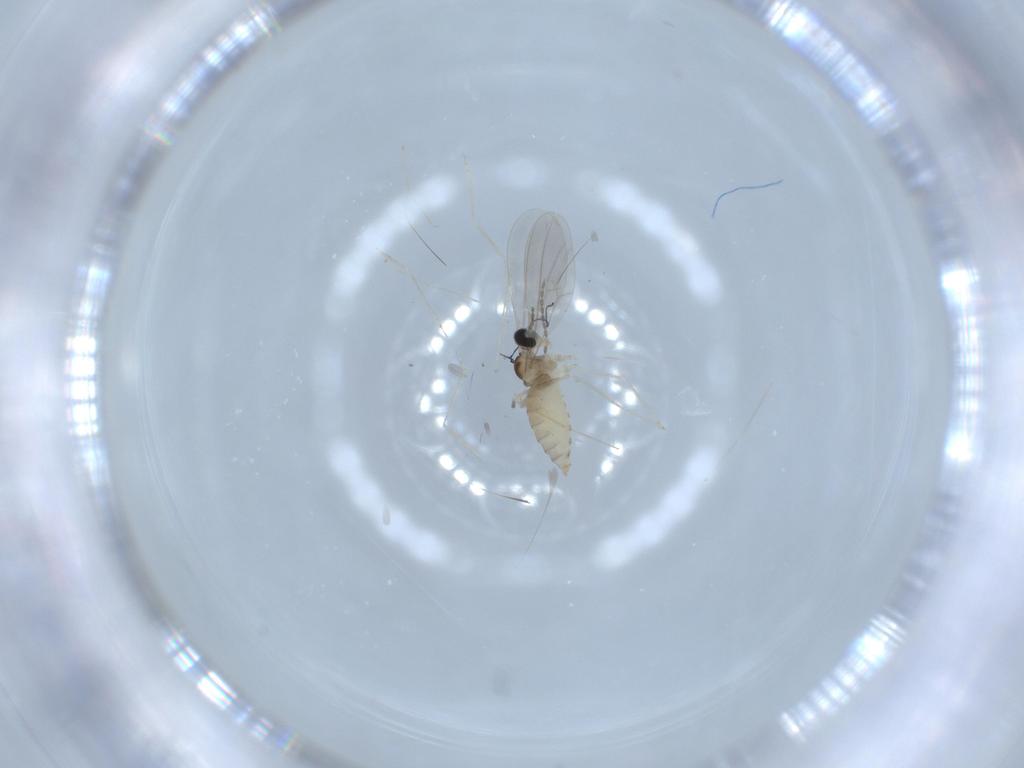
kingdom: Animalia
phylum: Arthropoda
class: Insecta
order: Diptera
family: Cecidomyiidae
